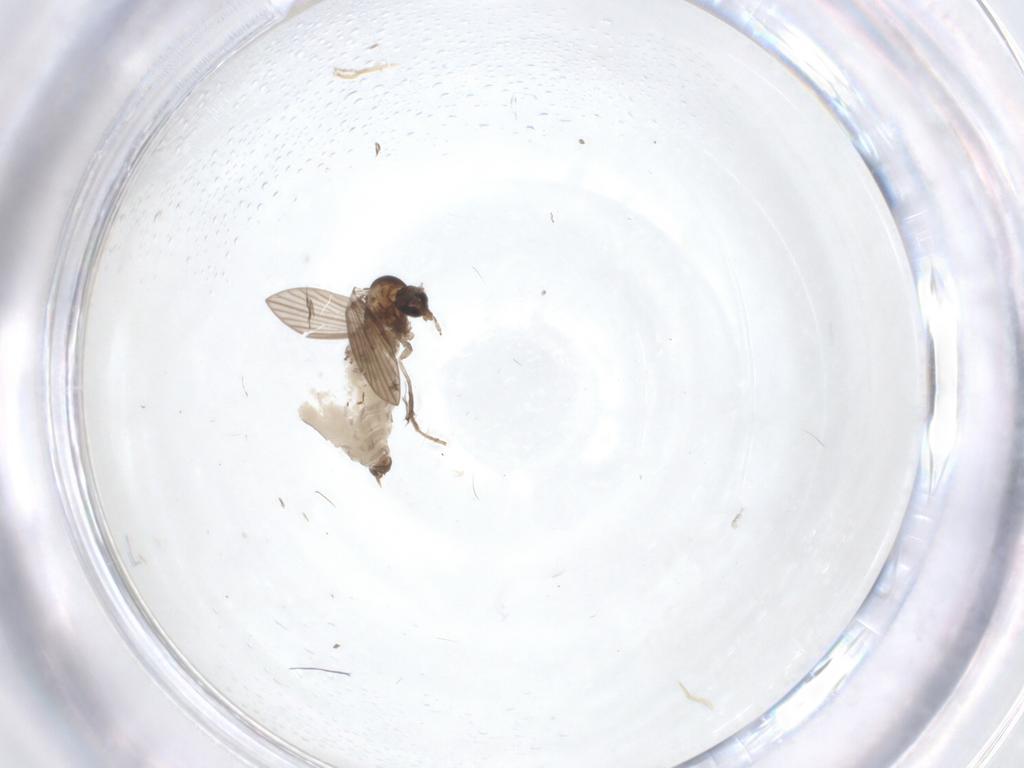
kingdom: Animalia
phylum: Arthropoda
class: Insecta
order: Diptera
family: Psychodidae
